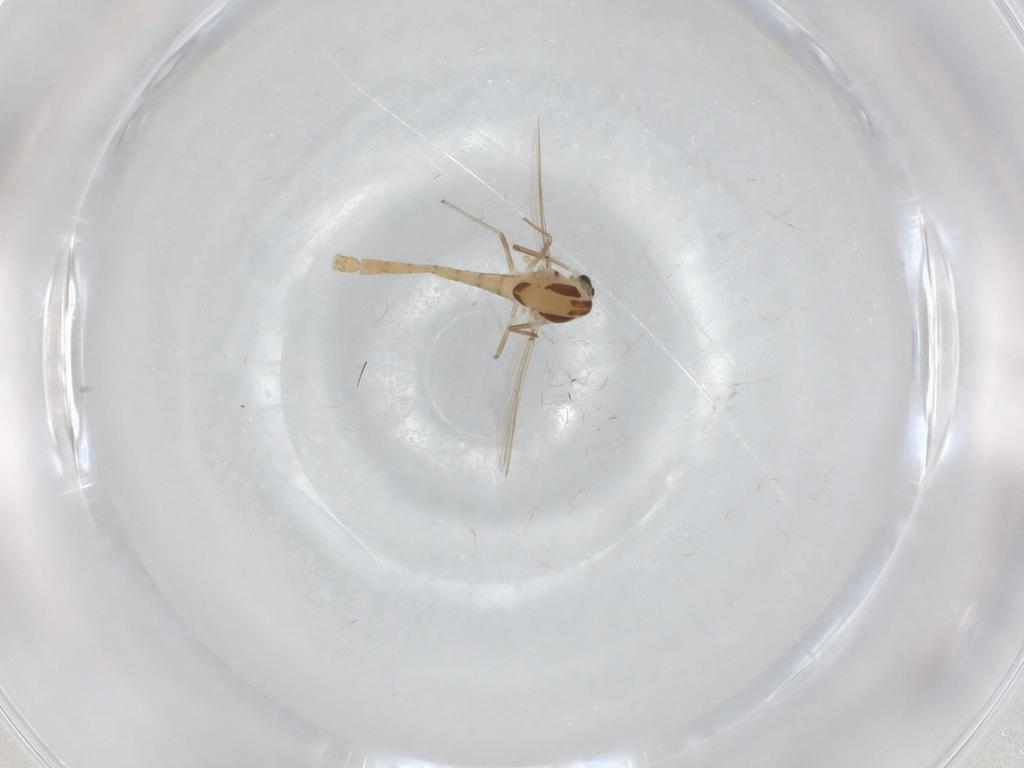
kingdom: Animalia
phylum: Arthropoda
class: Insecta
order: Diptera
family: Chironomidae
